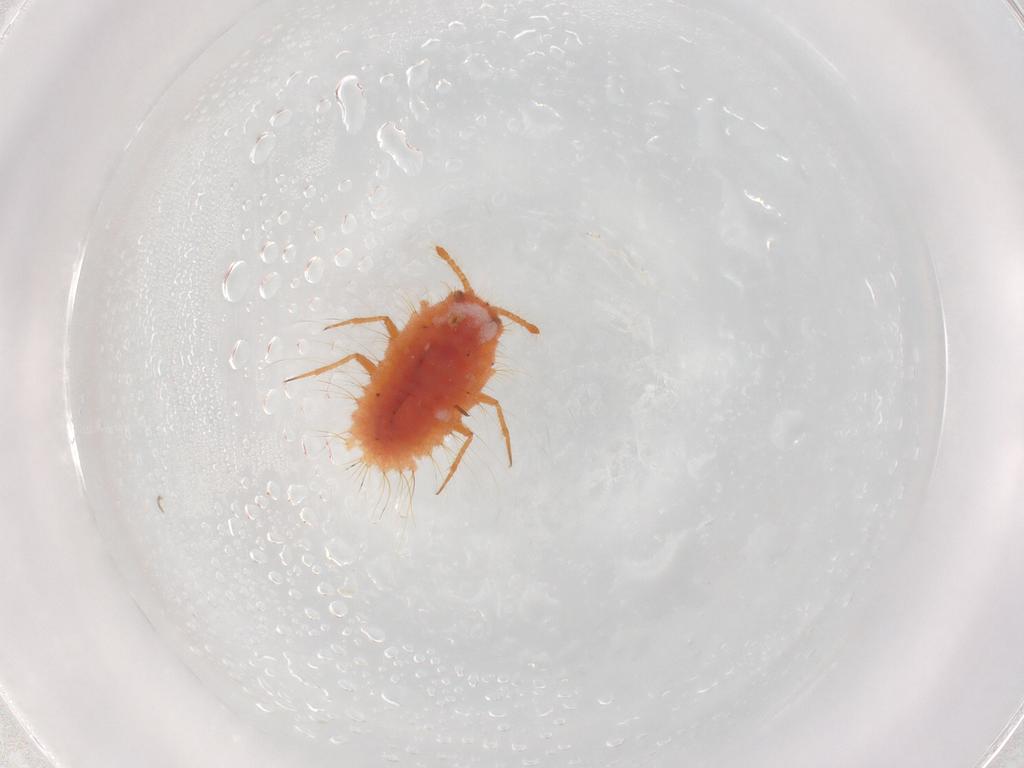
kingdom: Animalia
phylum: Arthropoda
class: Insecta
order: Hemiptera
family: Coccoidea_incertae_sedis
